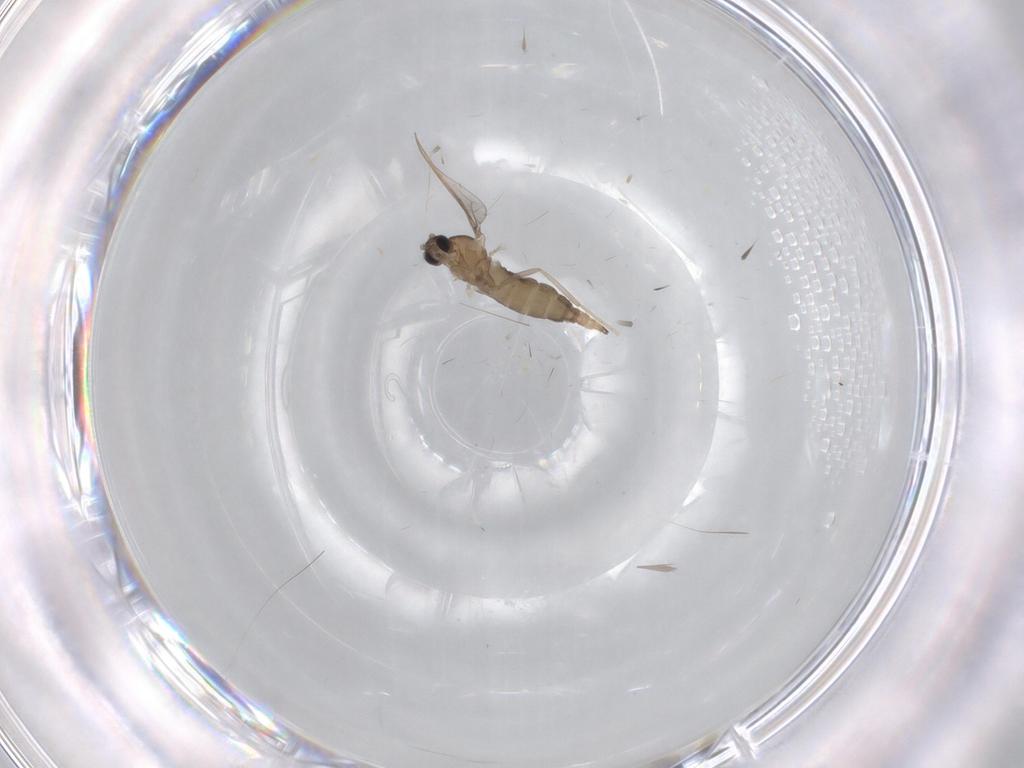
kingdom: Animalia
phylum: Arthropoda
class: Insecta
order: Diptera
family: Cecidomyiidae
